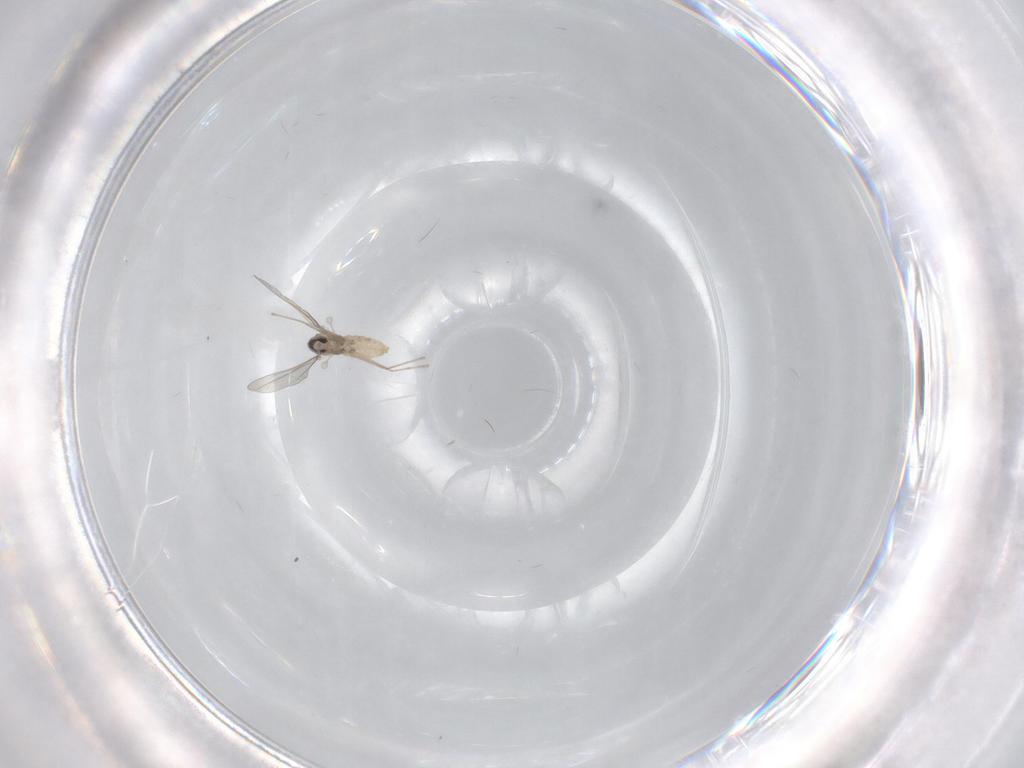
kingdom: Animalia
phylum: Arthropoda
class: Insecta
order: Diptera
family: Cecidomyiidae
